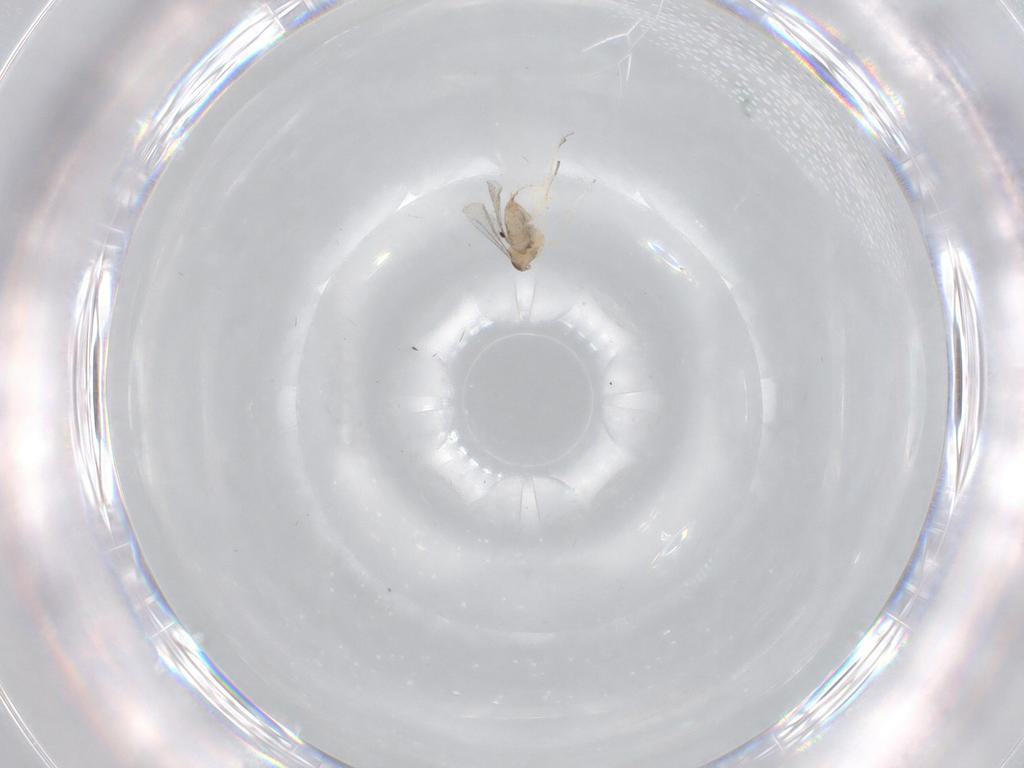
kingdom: Animalia
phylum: Arthropoda
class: Insecta
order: Diptera
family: Cecidomyiidae
